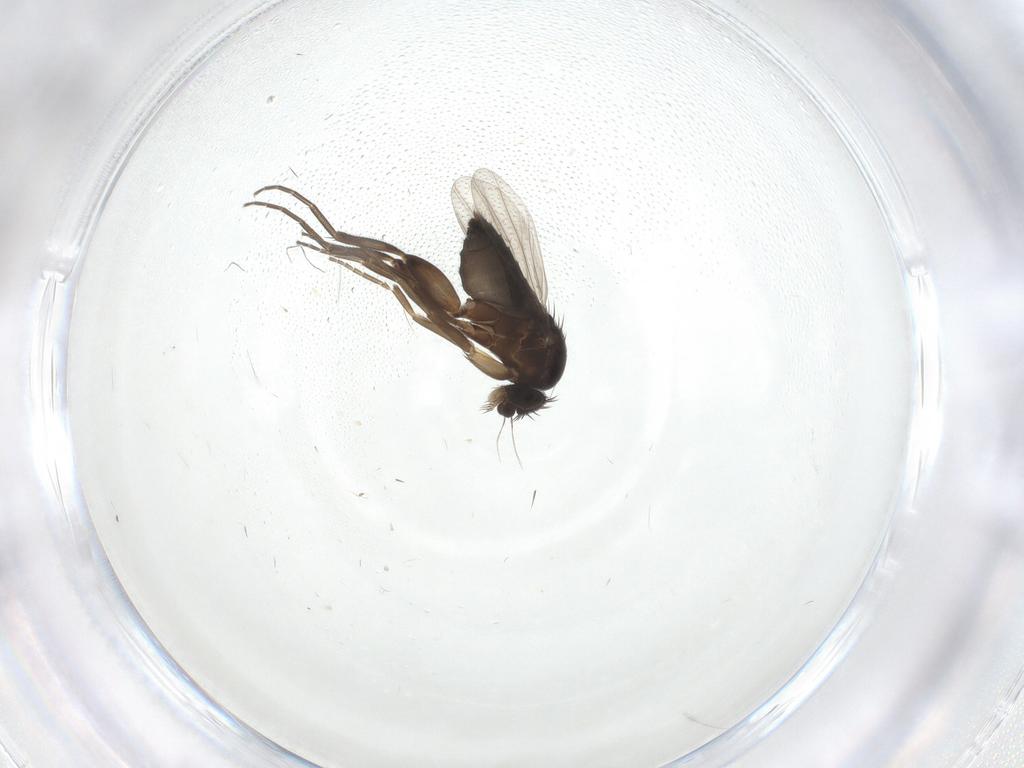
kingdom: Animalia
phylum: Arthropoda
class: Insecta
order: Diptera
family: Phoridae
